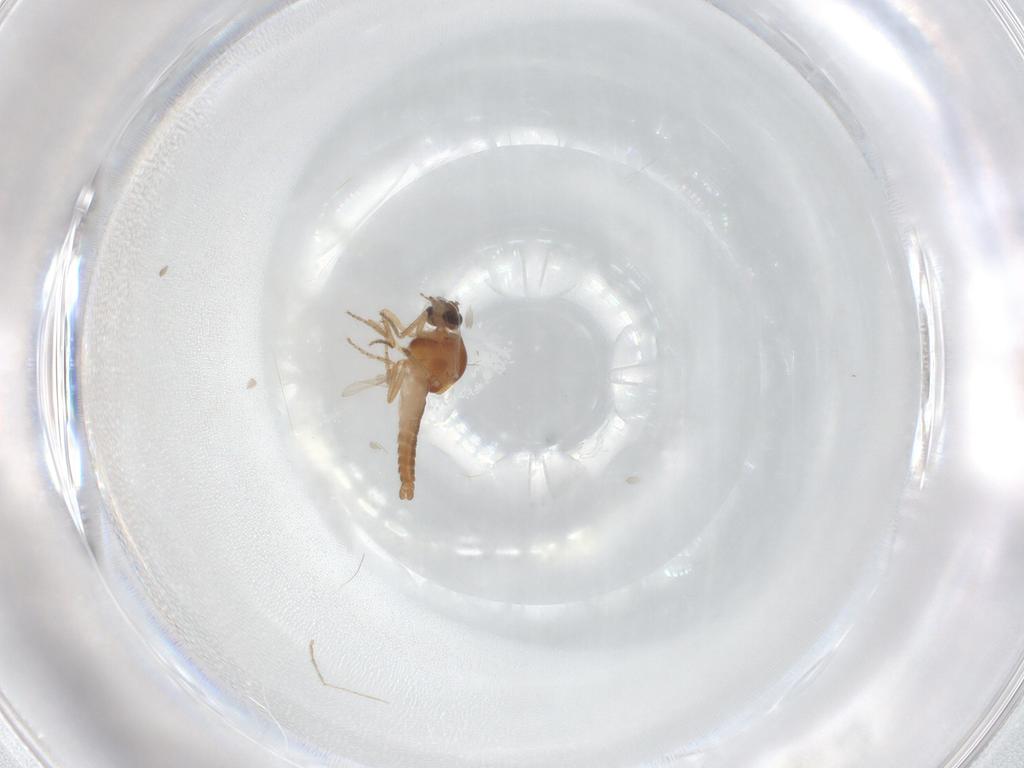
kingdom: Animalia
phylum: Arthropoda
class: Insecta
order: Diptera
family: Ceratopogonidae
